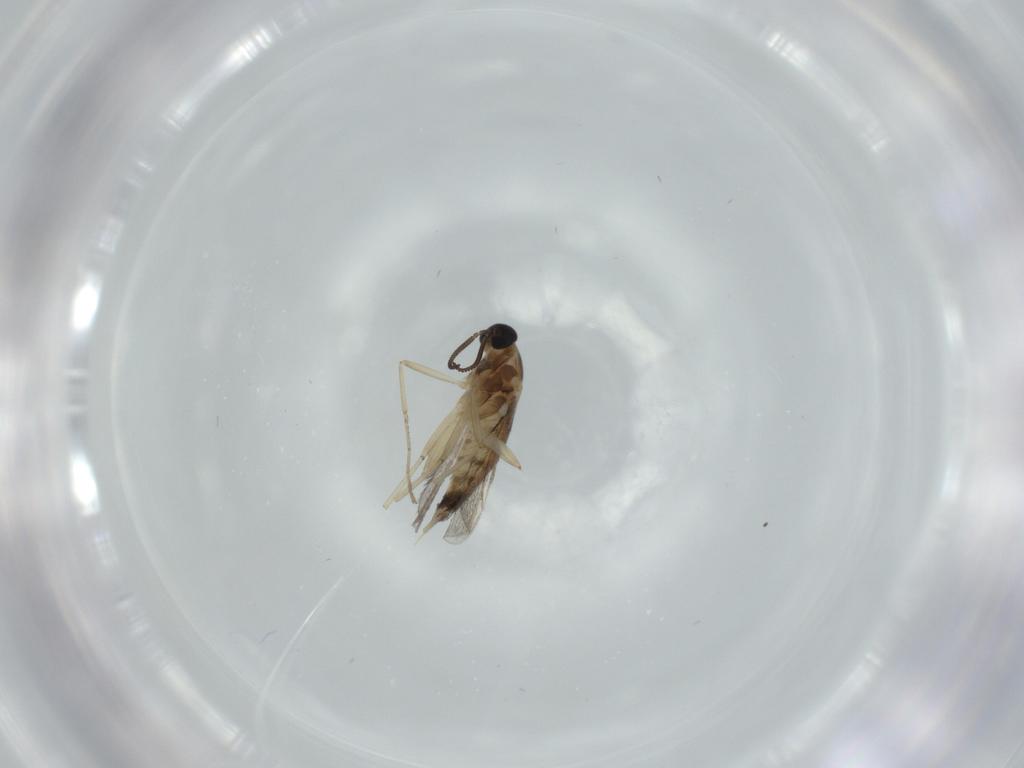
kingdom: Animalia
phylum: Arthropoda
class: Insecta
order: Diptera
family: Cecidomyiidae
